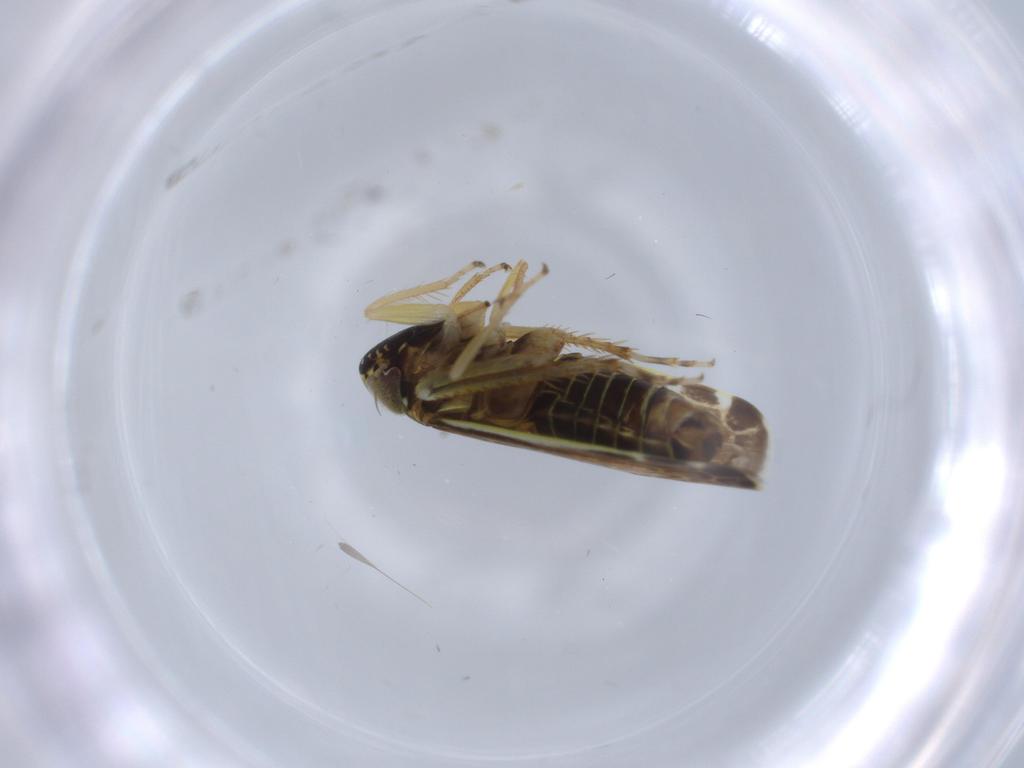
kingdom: Animalia
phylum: Arthropoda
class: Insecta
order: Hemiptera
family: Cicadellidae
